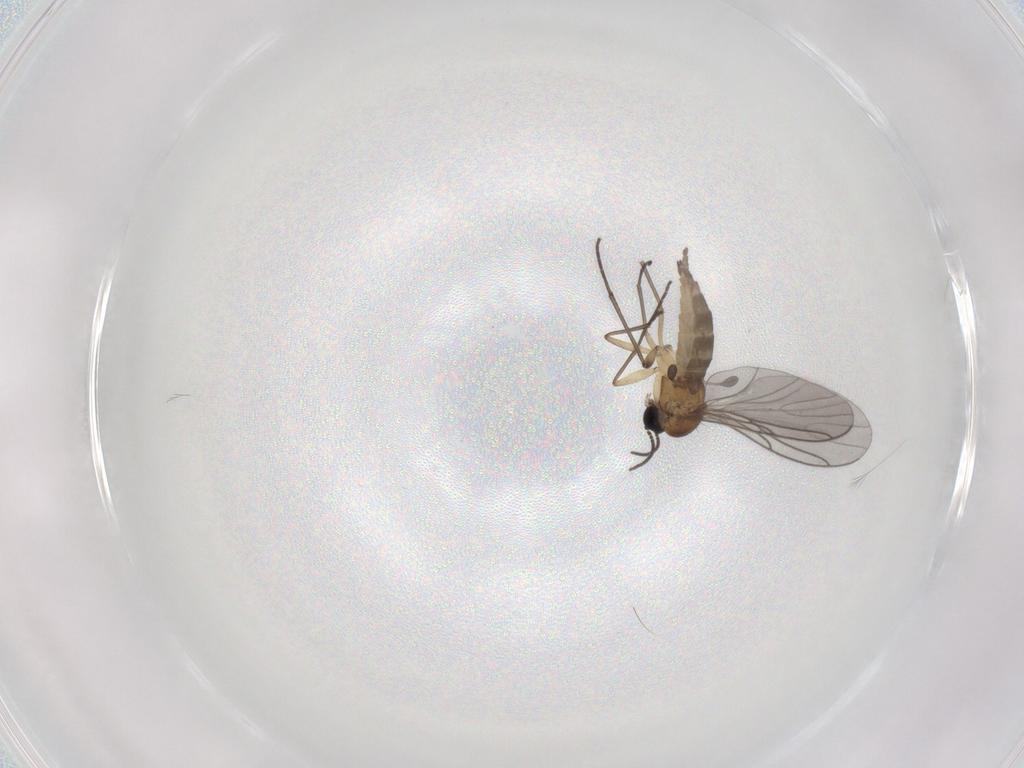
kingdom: Animalia
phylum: Arthropoda
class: Insecta
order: Diptera
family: Sciaridae
